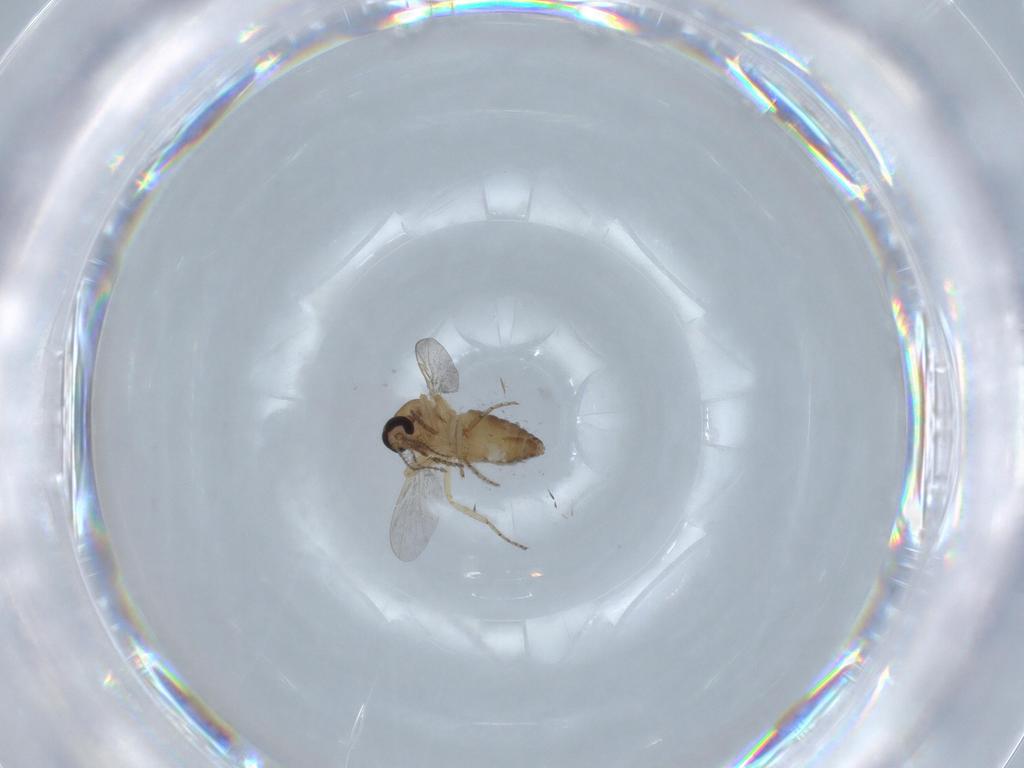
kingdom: Animalia
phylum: Arthropoda
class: Insecta
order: Diptera
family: Ceratopogonidae
